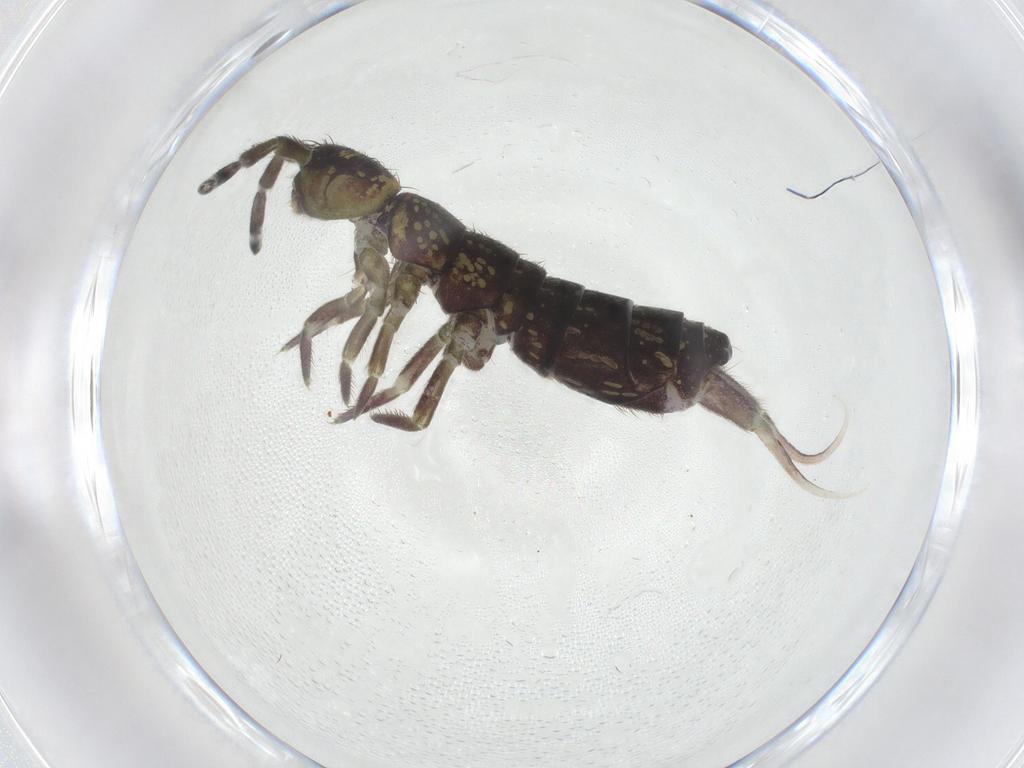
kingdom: Animalia
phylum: Arthropoda
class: Collembola
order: Entomobryomorpha
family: Isotomidae
